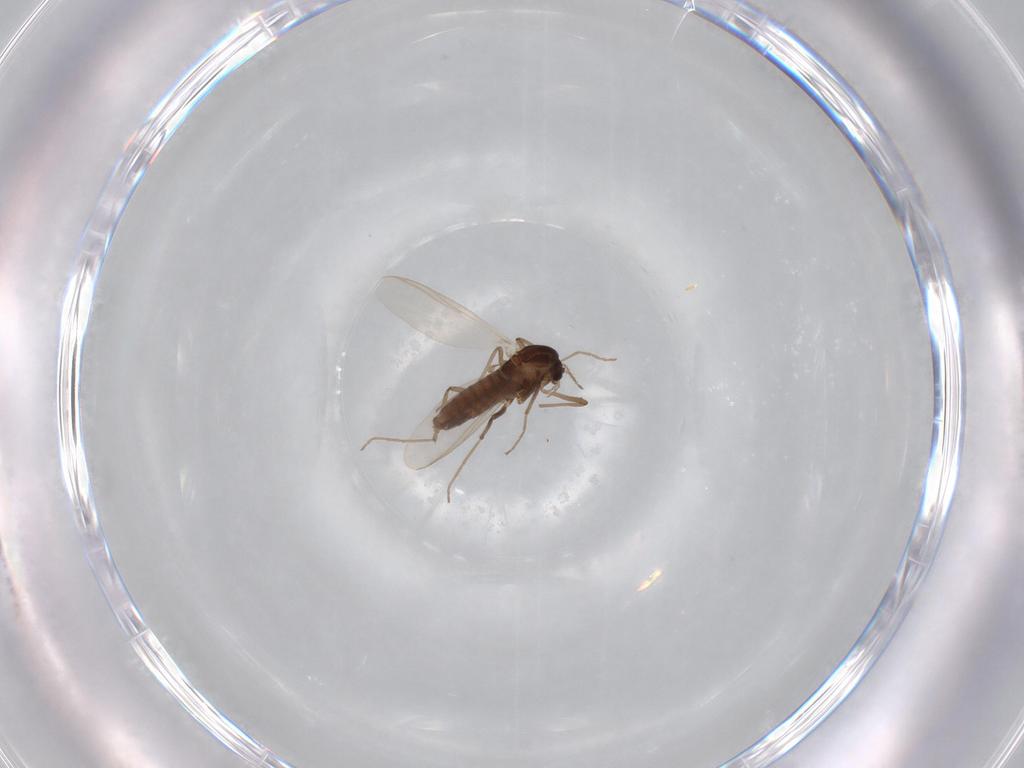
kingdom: Animalia
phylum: Arthropoda
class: Insecta
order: Diptera
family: Chironomidae
